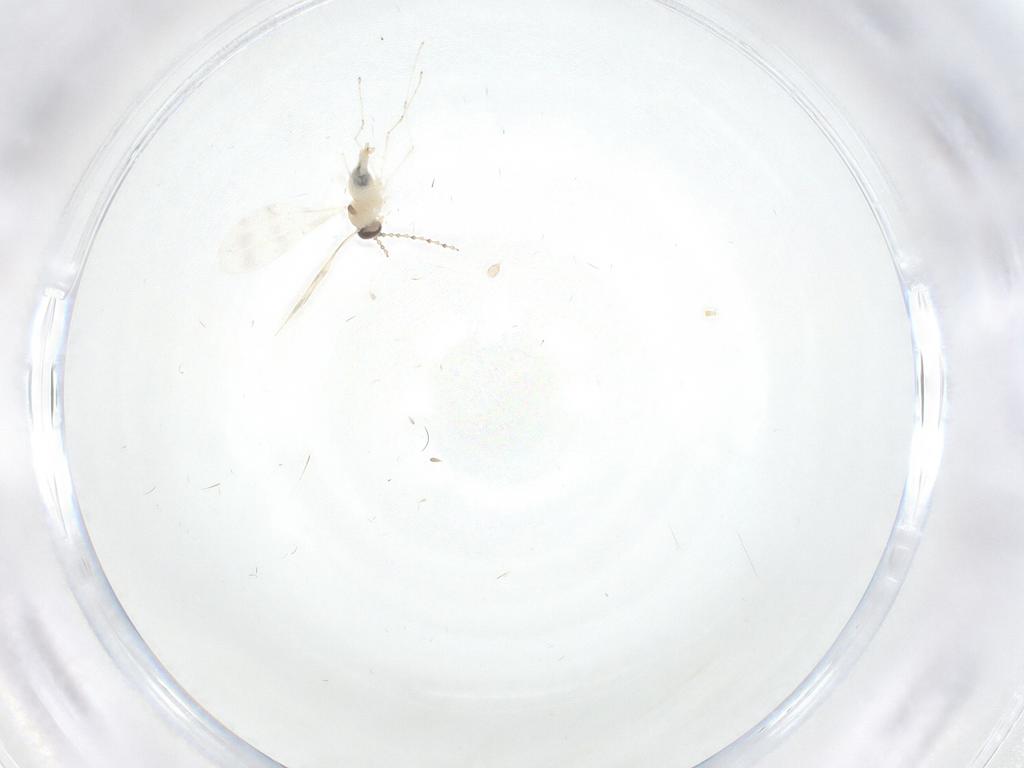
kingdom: Animalia
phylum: Arthropoda
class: Insecta
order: Diptera
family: Cecidomyiidae
